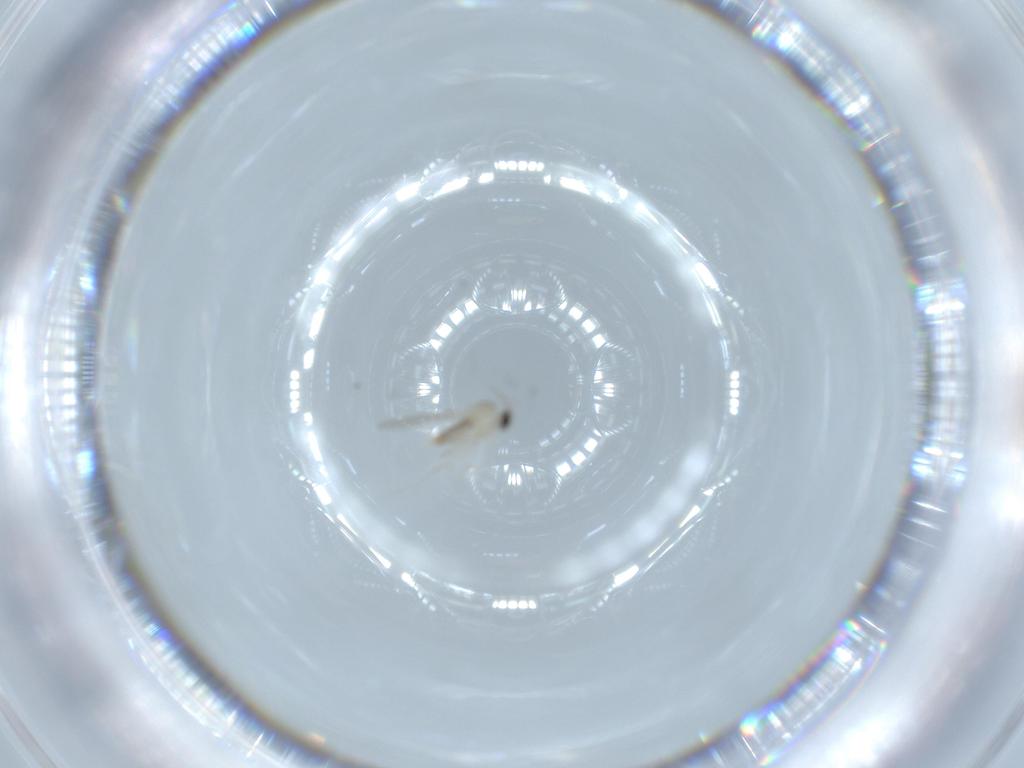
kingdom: Animalia
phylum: Arthropoda
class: Insecta
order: Diptera
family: Cecidomyiidae
